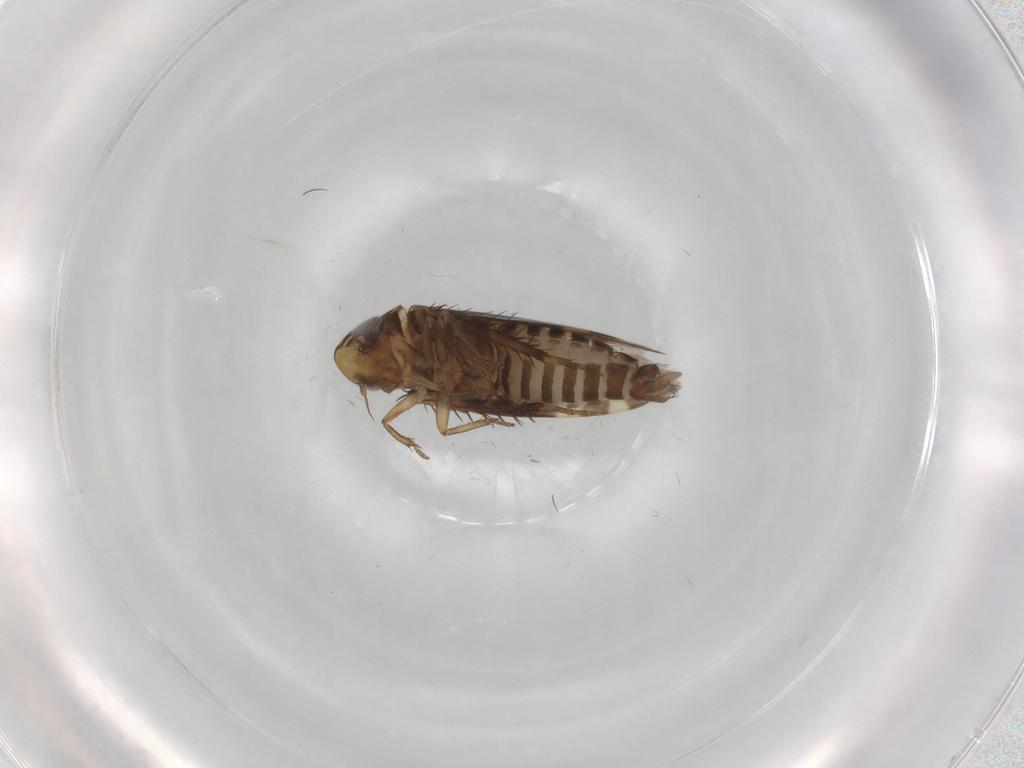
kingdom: Animalia
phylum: Arthropoda
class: Insecta
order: Hemiptera
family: Cicadellidae
